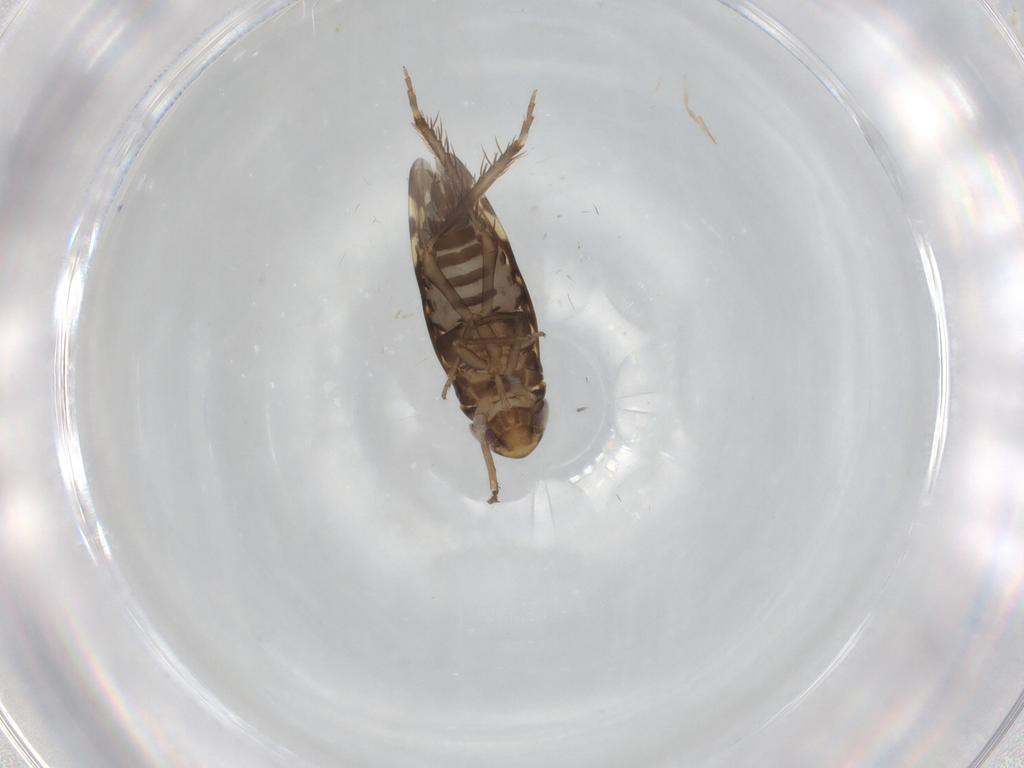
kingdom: Animalia
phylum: Arthropoda
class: Insecta
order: Hemiptera
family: Cicadellidae
